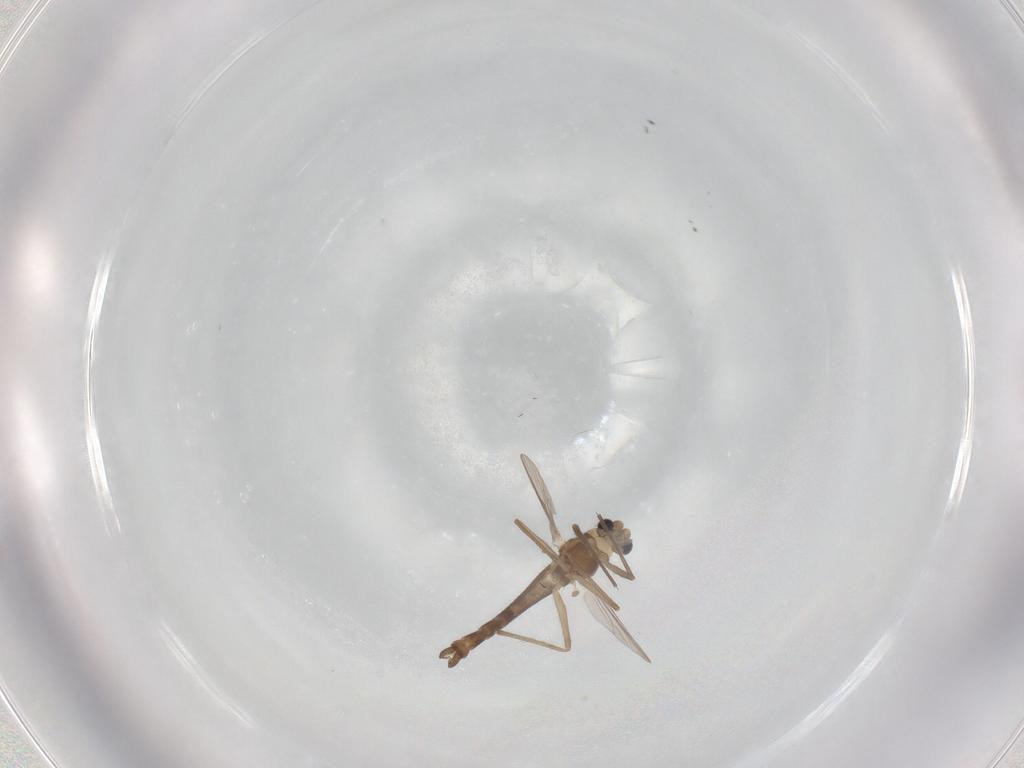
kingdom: Animalia
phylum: Arthropoda
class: Insecta
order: Diptera
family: Chironomidae
